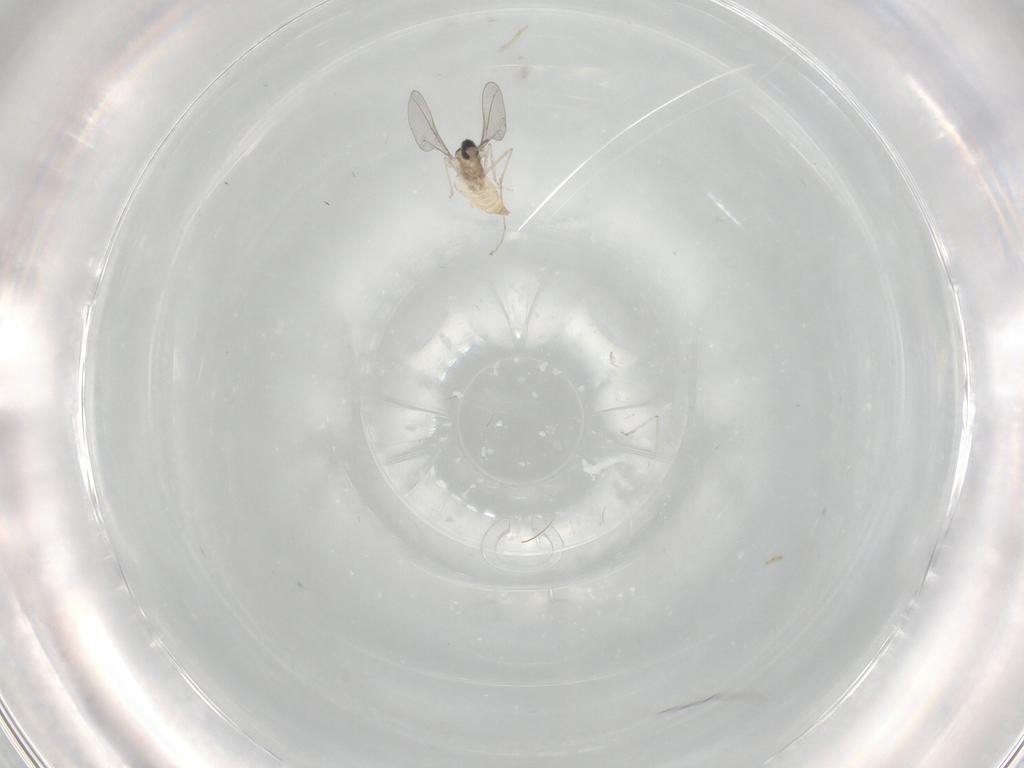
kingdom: Animalia
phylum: Arthropoda
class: Insecta
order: Diptera
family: Cecidomyiidae
